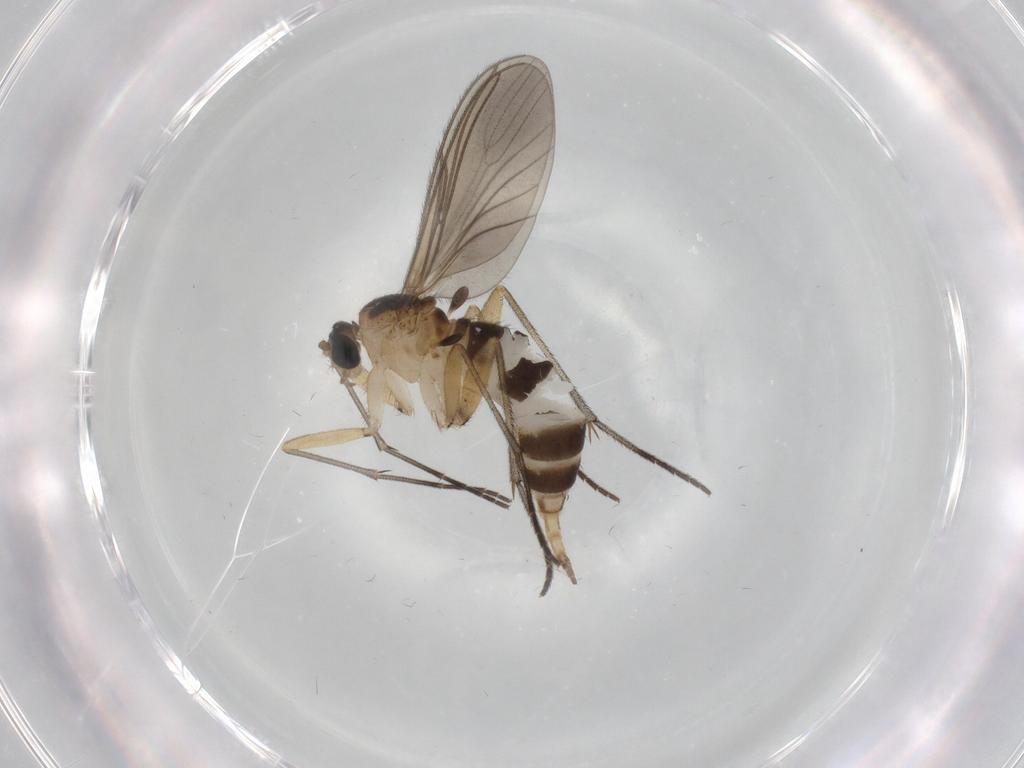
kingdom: Animalia
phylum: Arthropoda
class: Insecta
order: Diptera
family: Sciaridae
